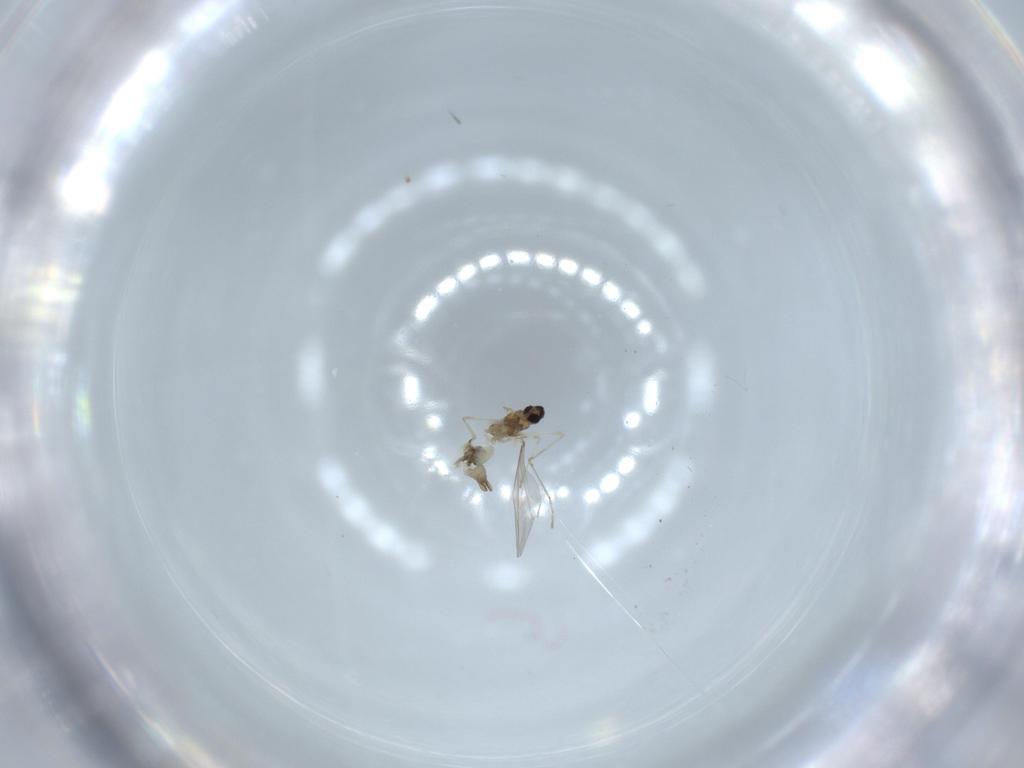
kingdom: Animalia
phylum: Arthropoda
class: Insecta
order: Diptera
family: Cecidomyiidae
